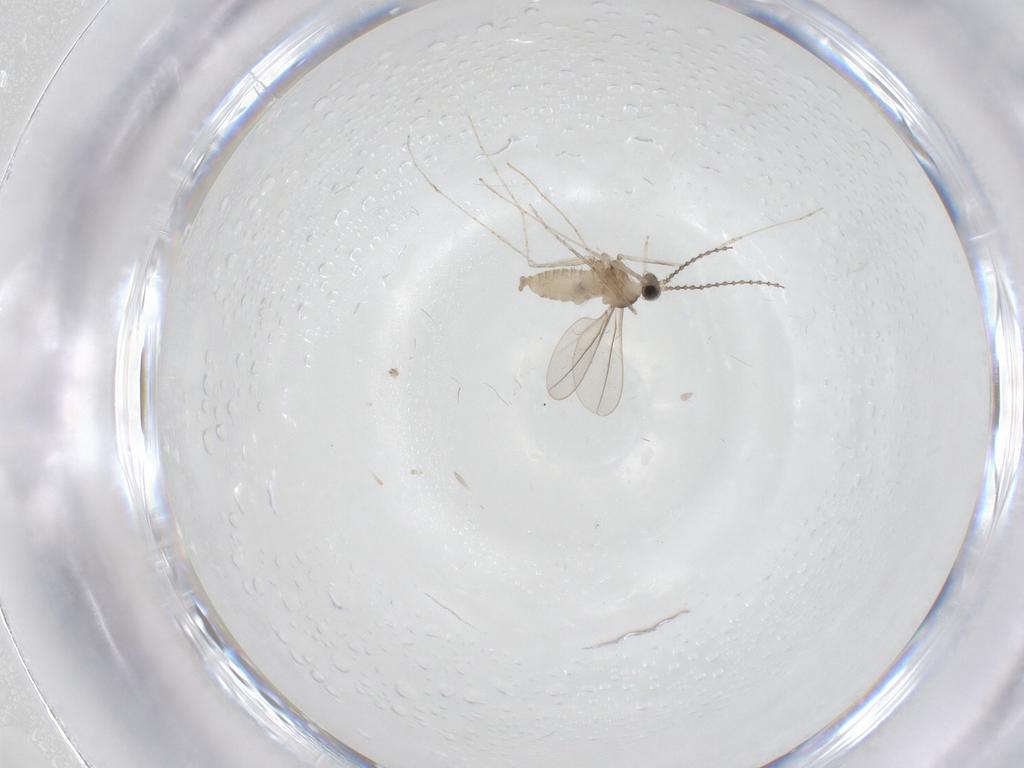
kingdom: Animalia
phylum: Arthropoda
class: Insecta
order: Diptera
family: Cecidomyiidae
